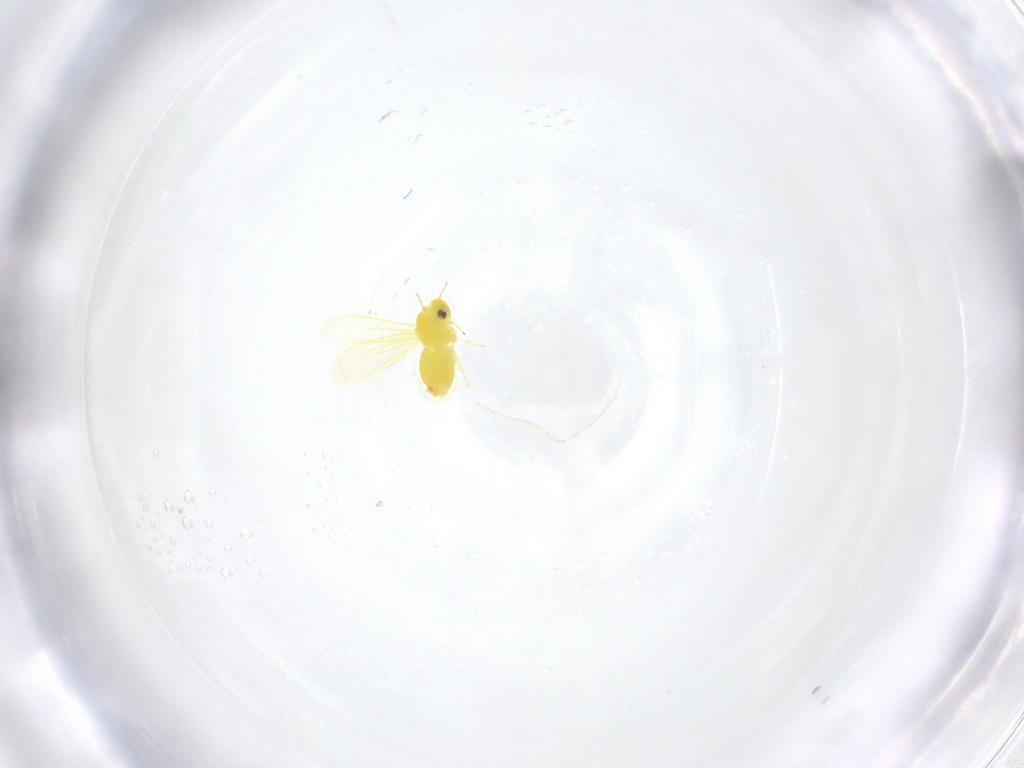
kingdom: Animalia
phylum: Arthropoda
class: Insecta
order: Hemiptera
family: Aleyrodidae
